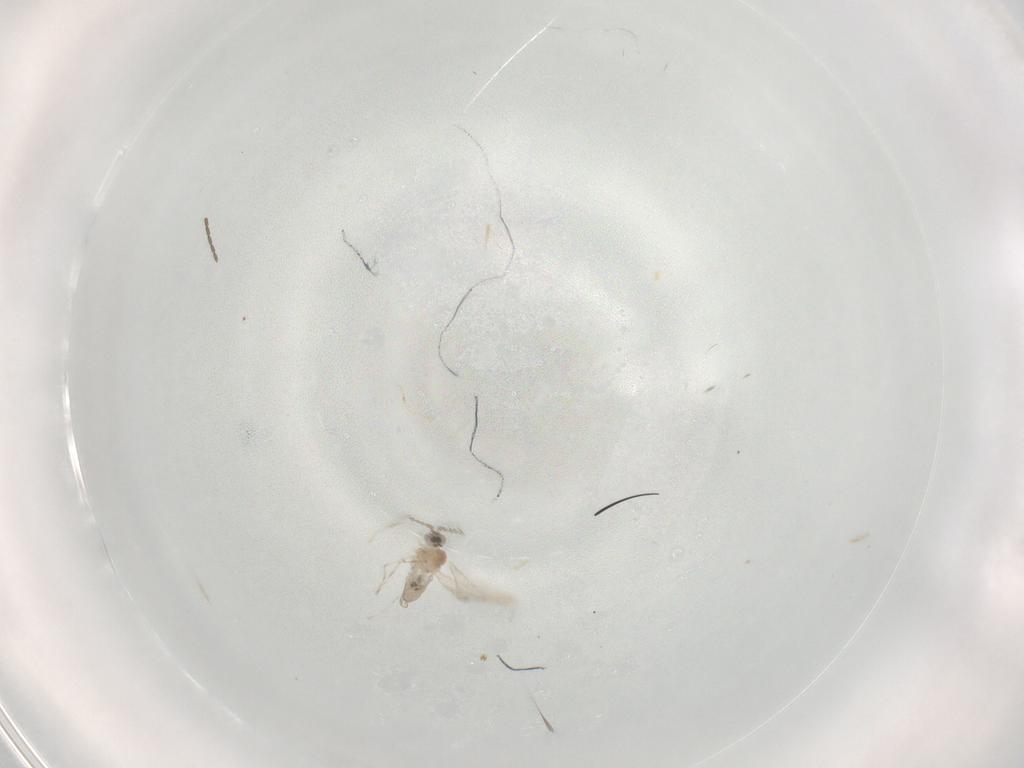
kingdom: Animalia
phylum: Arthropoda
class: Insecta
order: Diptera
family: Cecidomyiidae
